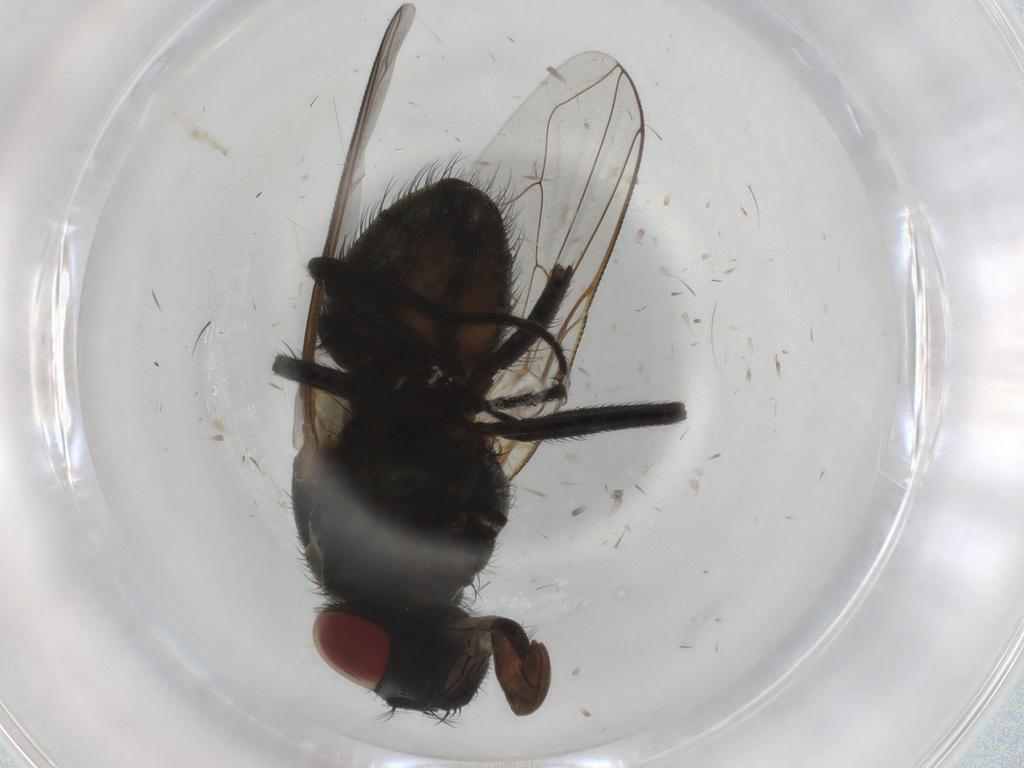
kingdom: Animalia
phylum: Arthropoda
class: Insecta
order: Diptera
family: Muscidae
